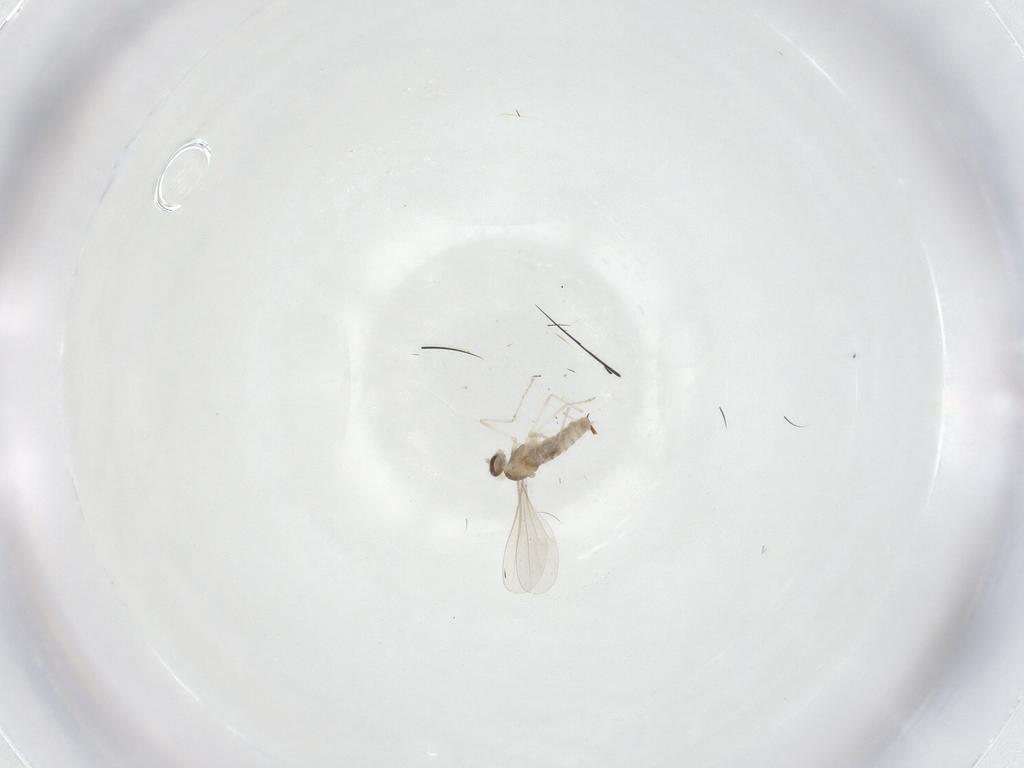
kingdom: Animalia
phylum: Arthropoda
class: Insecta
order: Diptera
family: Cecidomyiidae
